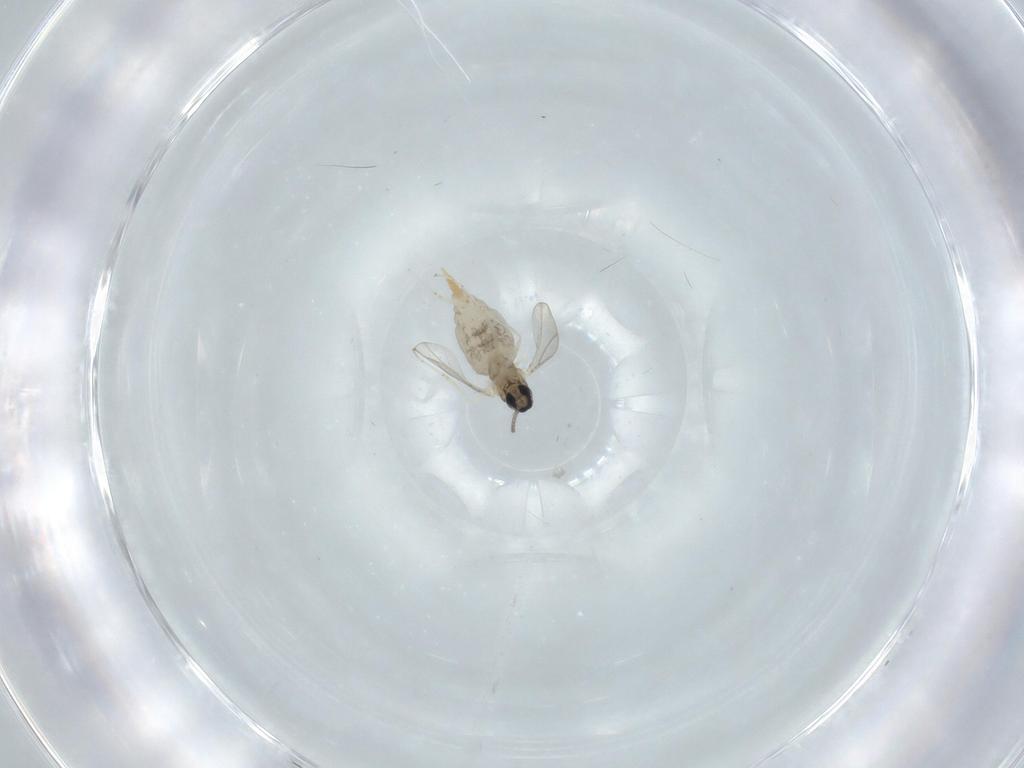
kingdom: Animalia
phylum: Arthropoda
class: Insecta
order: Diptera
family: Cecidomyiidae
